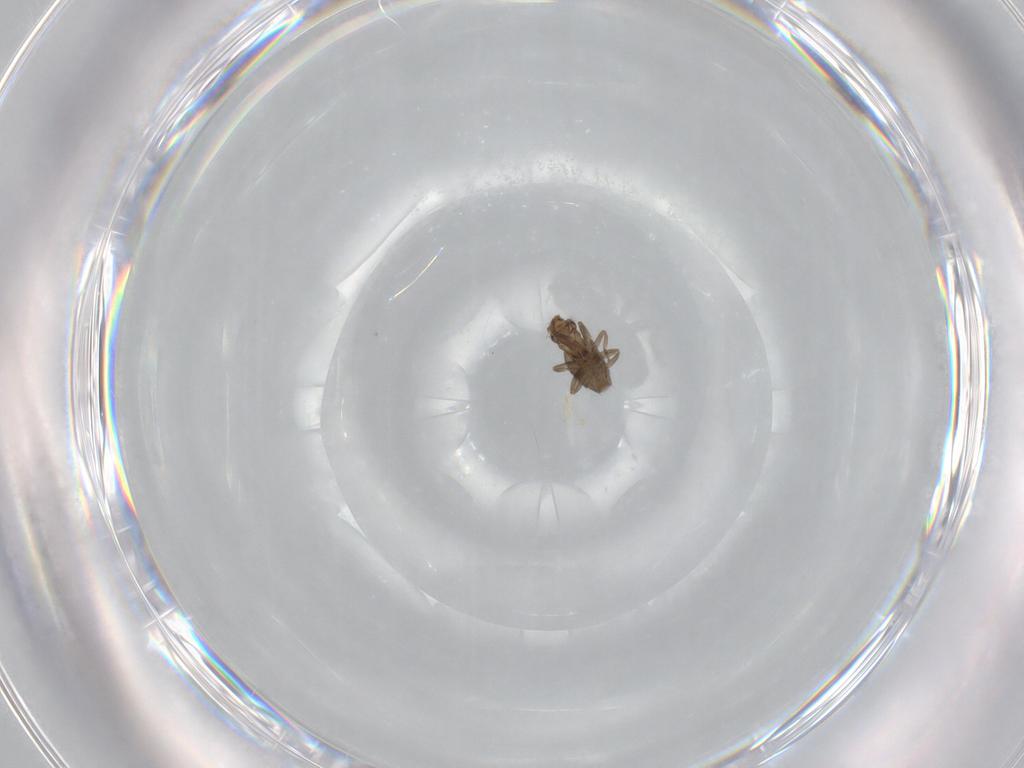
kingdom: Animalia
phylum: Arthropoda
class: Insecta
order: Diptera
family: Drosophilidae
